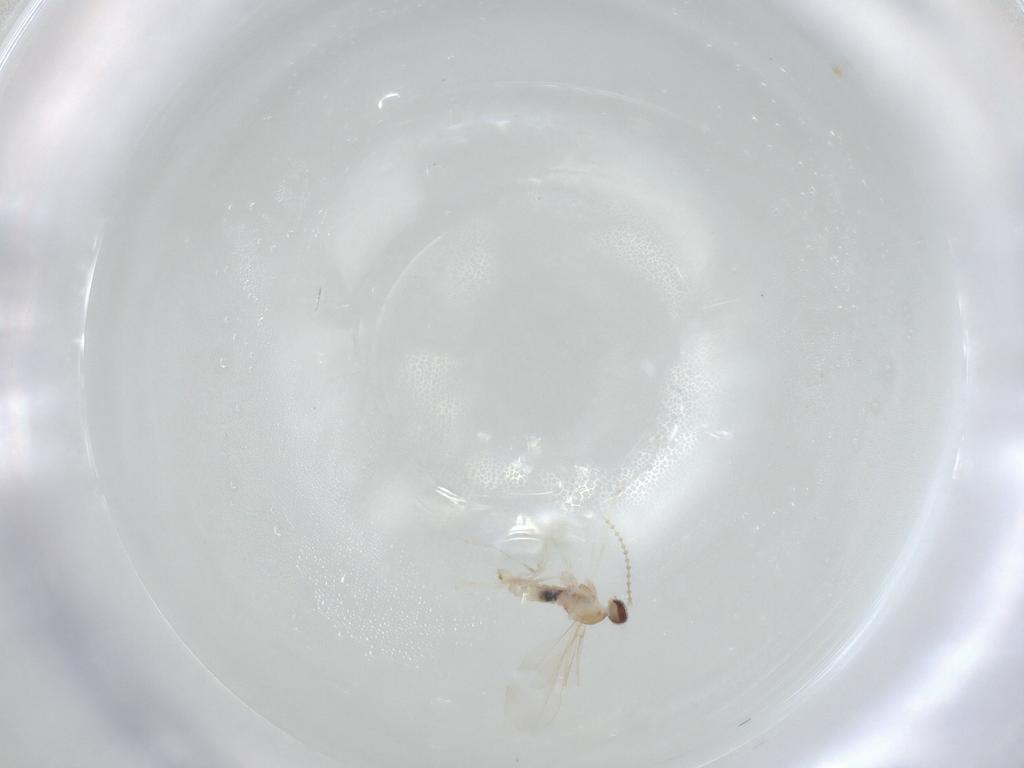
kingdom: Animalia
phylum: Arthropoda
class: Insecta
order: Diptera
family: Cecidomyiidae
